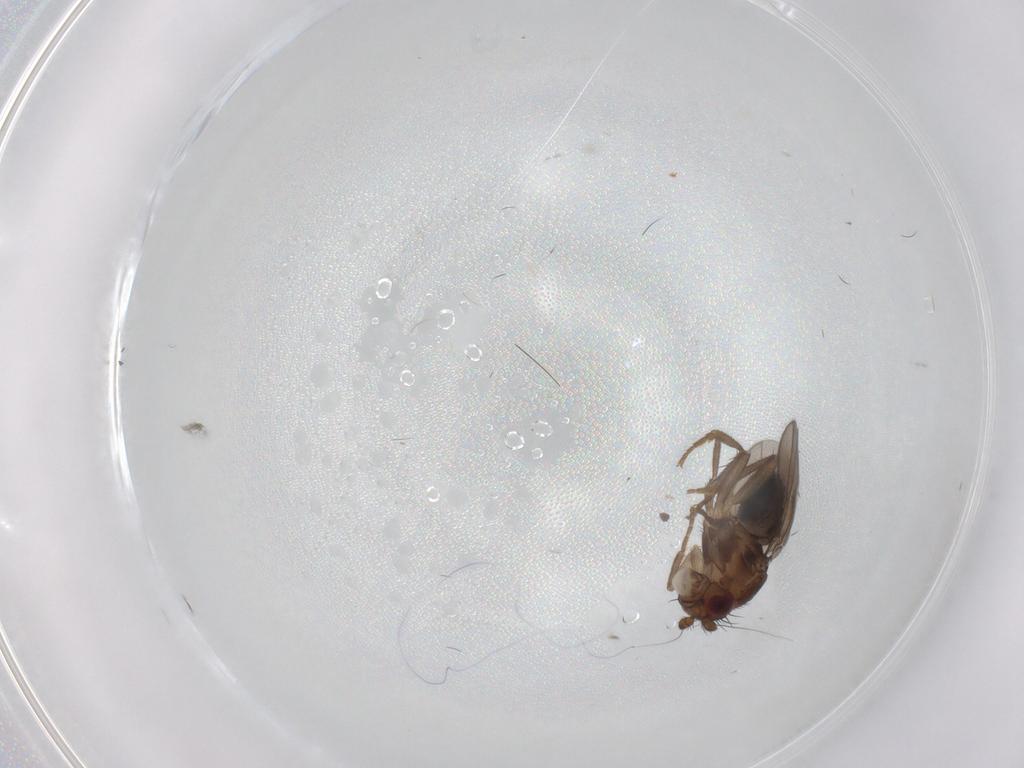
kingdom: Animalia
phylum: Arthropoda
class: Insecta
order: Diptera
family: Sphaeroceridae
